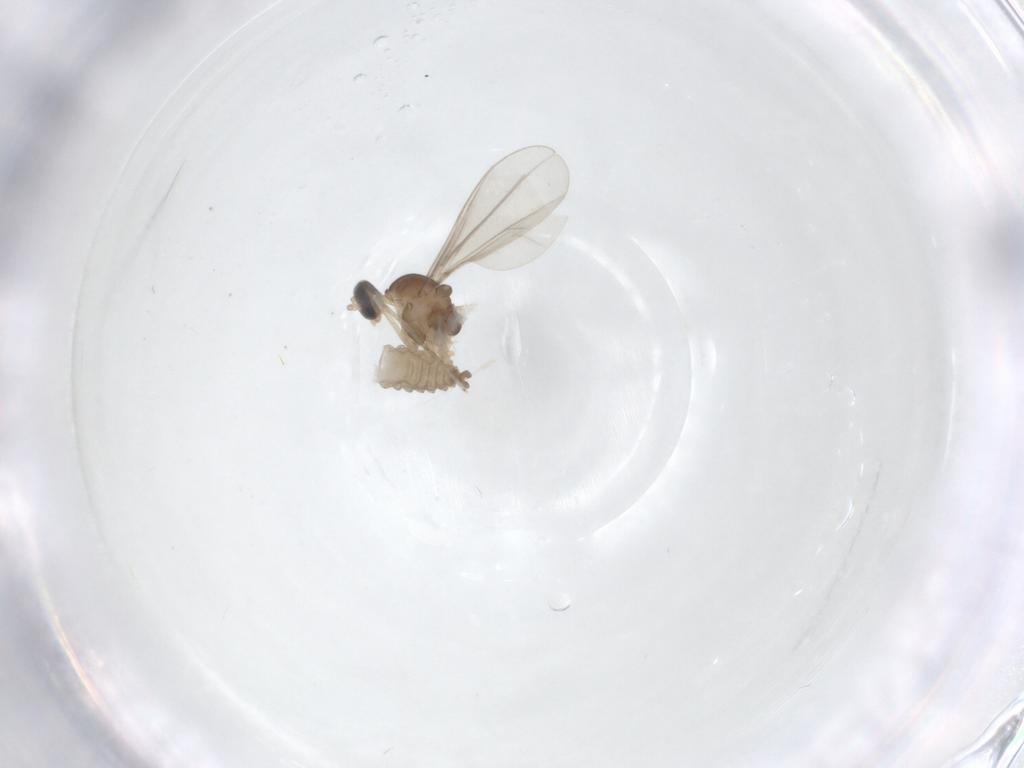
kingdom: Animalia
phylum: Arthropoda
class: Insecta
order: Diptera
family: Cecidomyiidae
